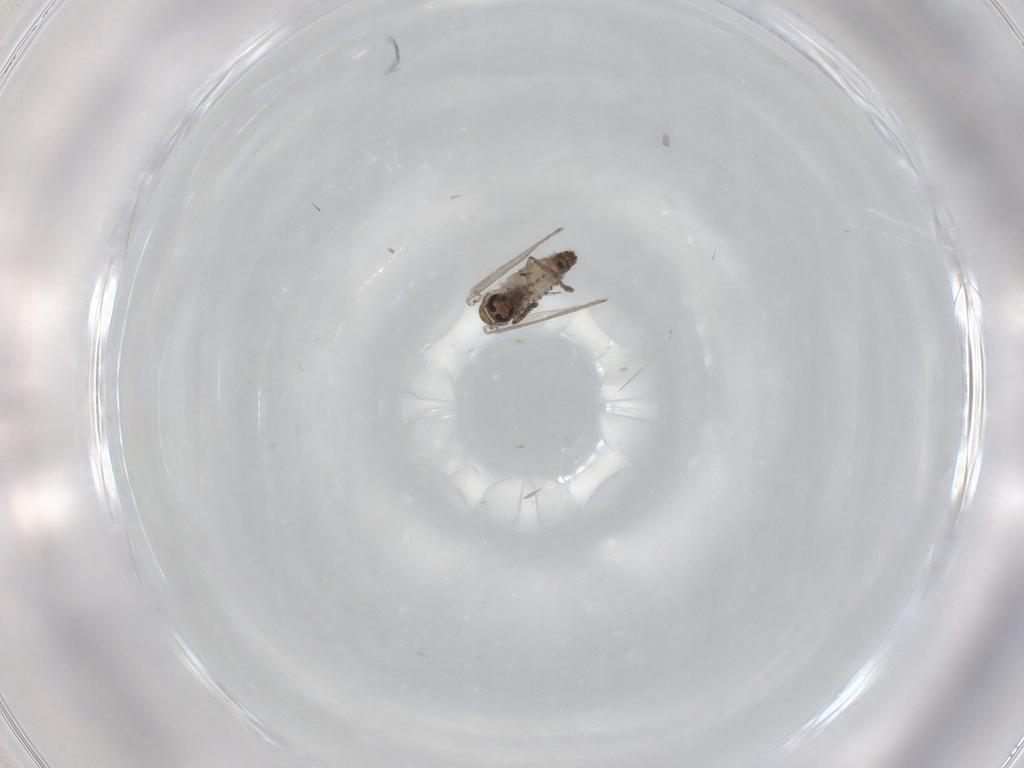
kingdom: Animalia
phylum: Arthropoda
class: Insecta
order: Diptera
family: Psychodidae
